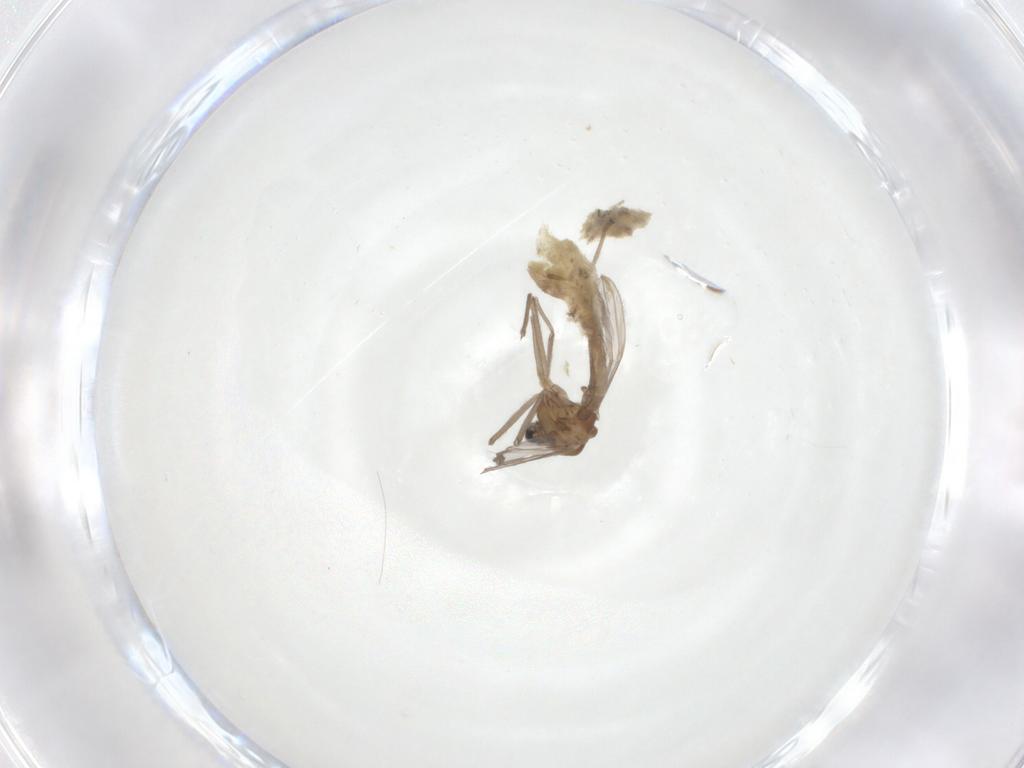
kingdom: Animalia
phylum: Arthropoda
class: Insecta
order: Diptera
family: Chironomidae
